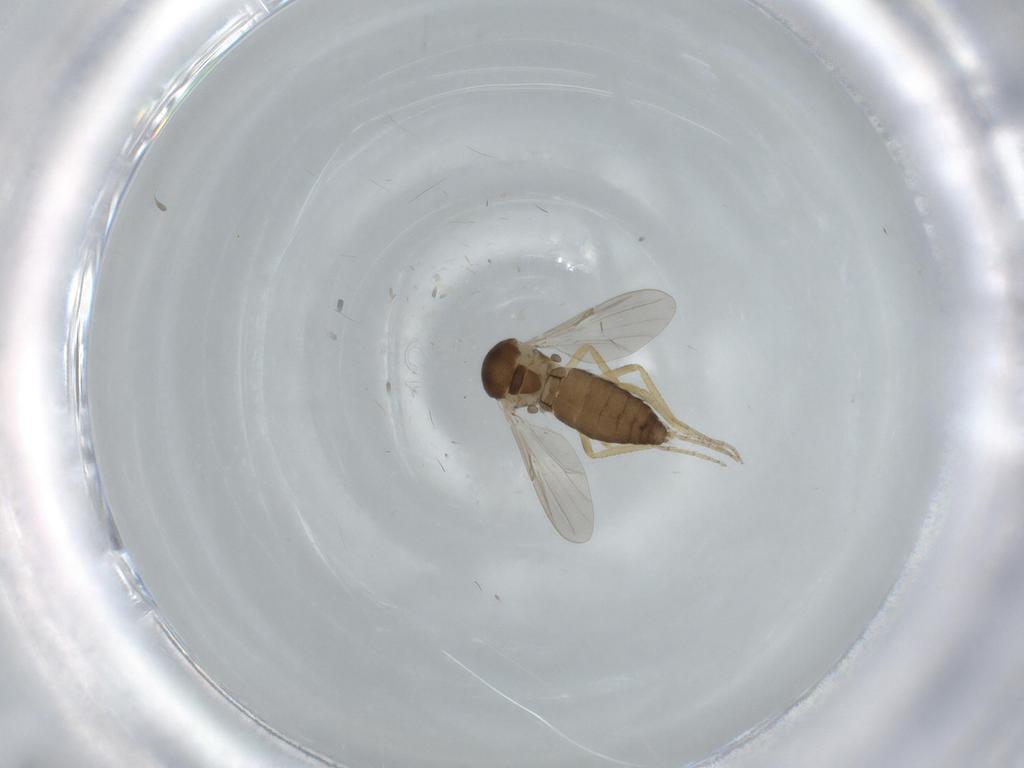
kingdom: Animalia
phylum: Arthropoda
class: Insecta
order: Diptera
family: Ceratopogonidae
